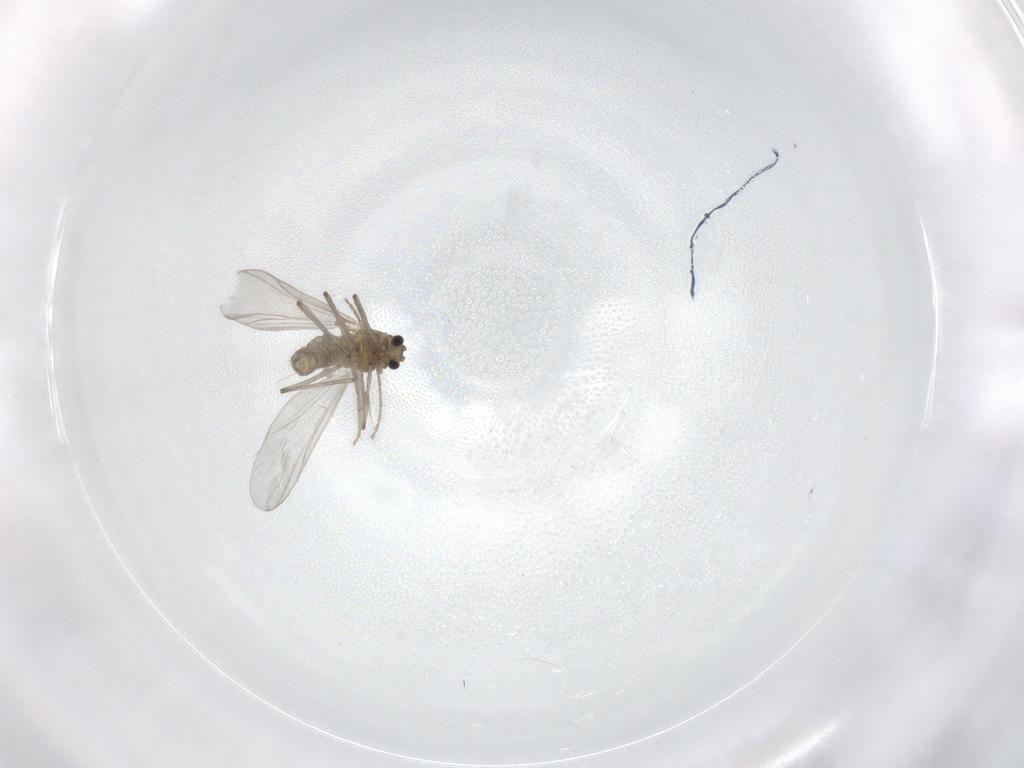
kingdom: Animalia
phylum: Arthropoda
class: Insecta
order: Diptera
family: Chironomidae
